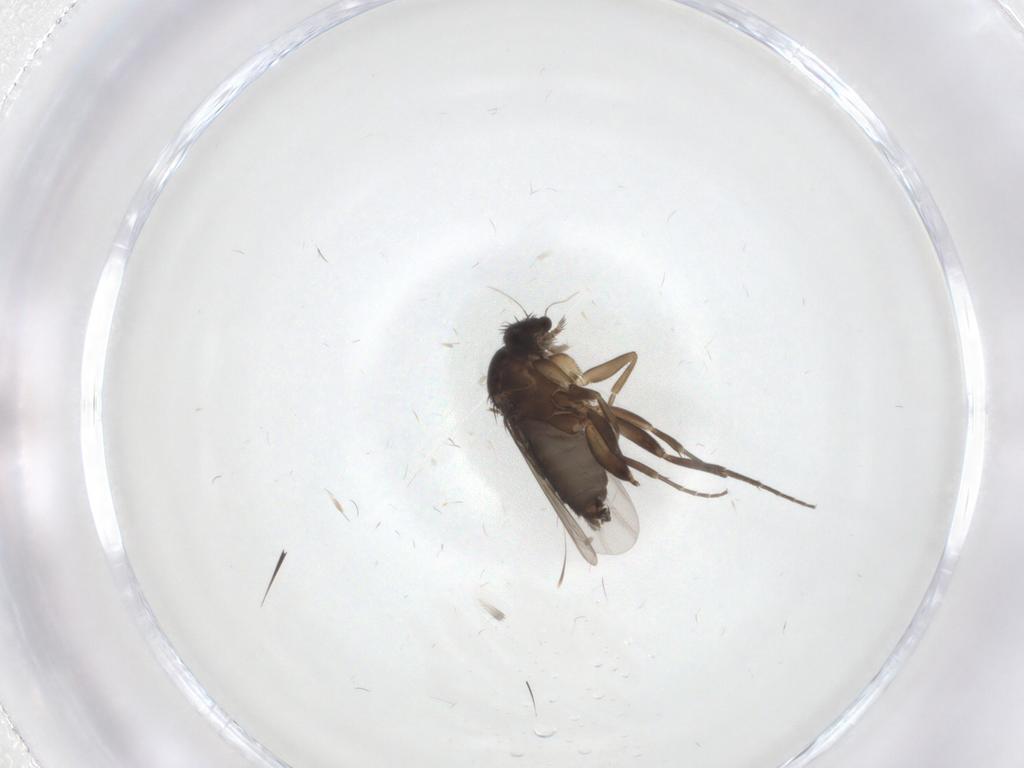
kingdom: Animalia
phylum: Arthropoda
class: Insecta
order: Diptera
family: Phoridae
